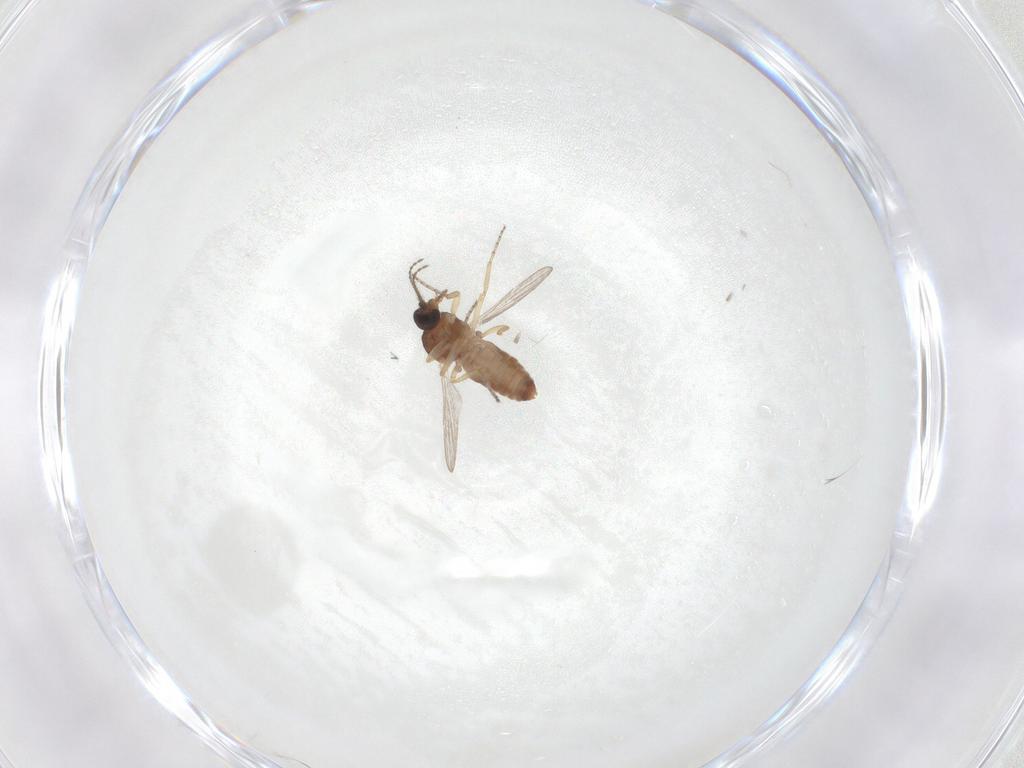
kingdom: Animalia
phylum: Arthropoda
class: Insecta
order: Diptera
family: Ceratopogonidae
